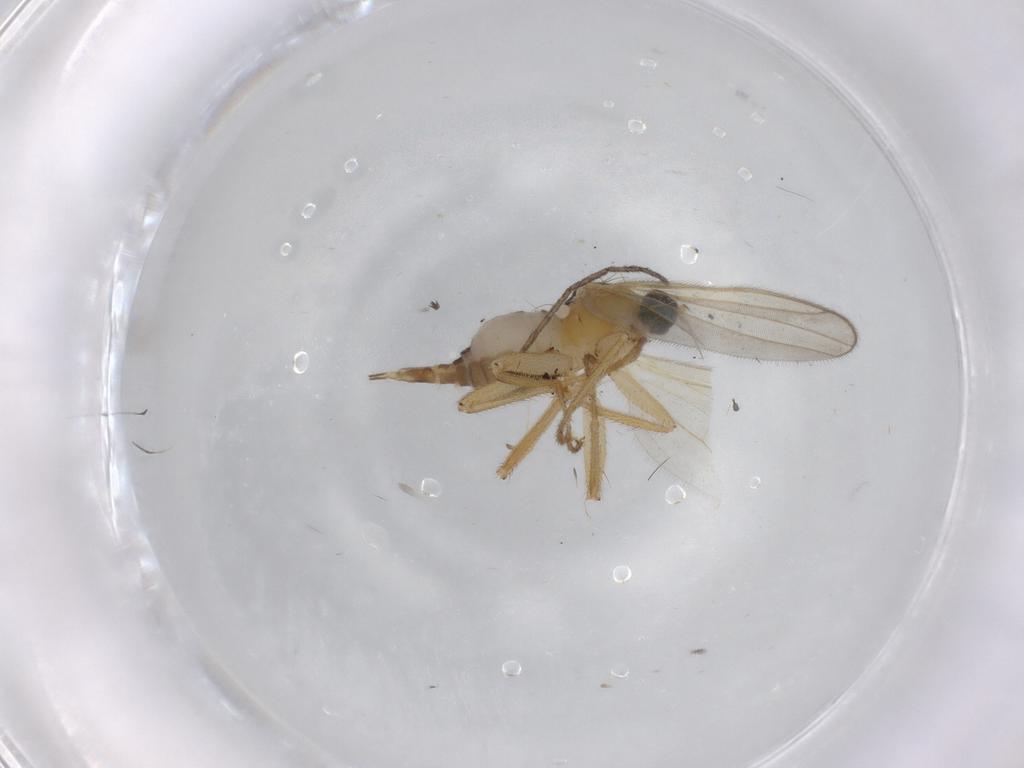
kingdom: Animalia
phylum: Arthropoda
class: Insecta
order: Diptera
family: Hybotidae
